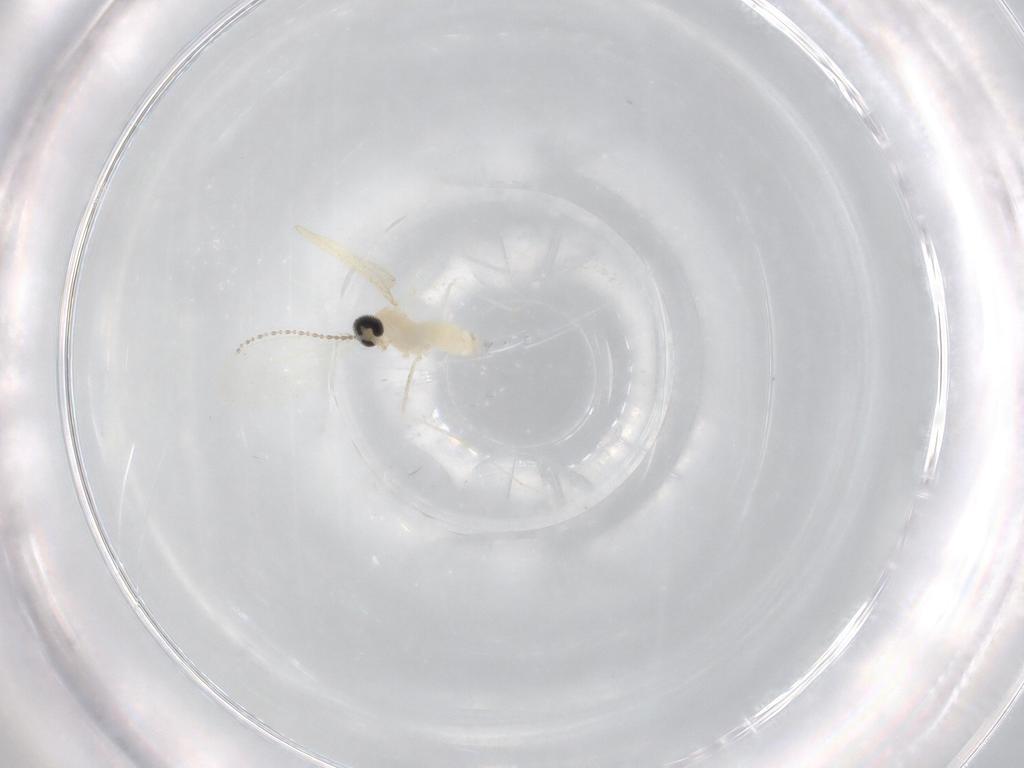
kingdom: Animalia
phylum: Arthropoda
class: Insecta
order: Diptera
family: Cecidomyiidae
